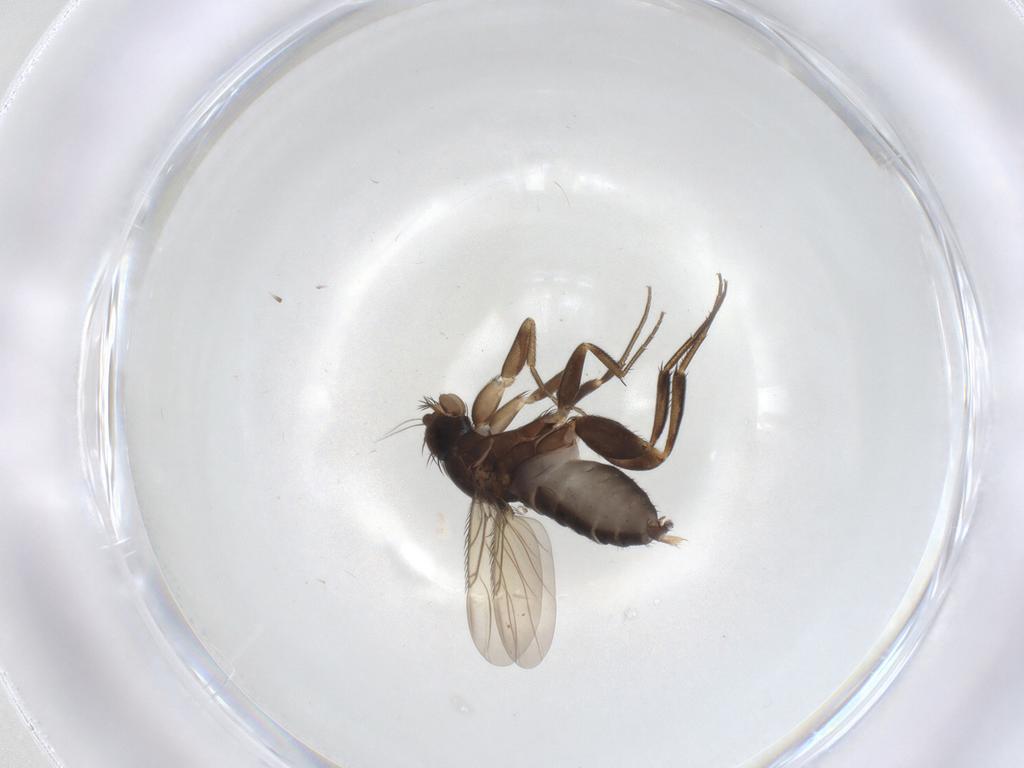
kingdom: Animalia
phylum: Arthropoda
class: Insecta
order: Diptera
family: Phoridae
